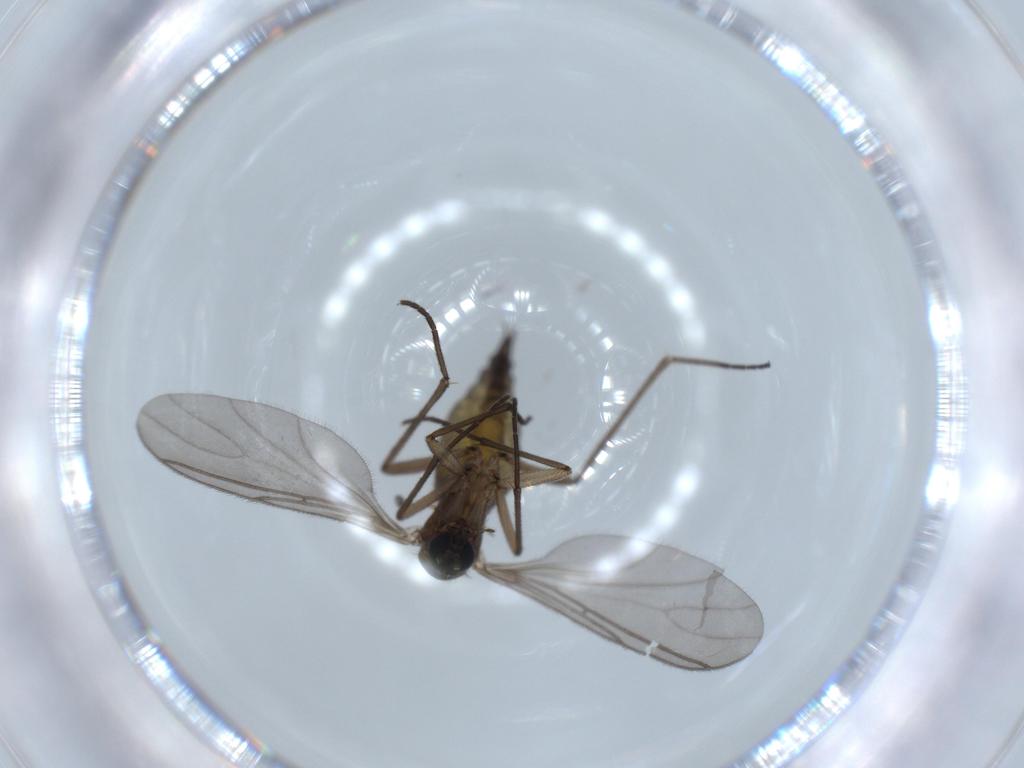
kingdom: Animalia
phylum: Arthropoda
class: Insecta
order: Diptera
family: Sciaridae
